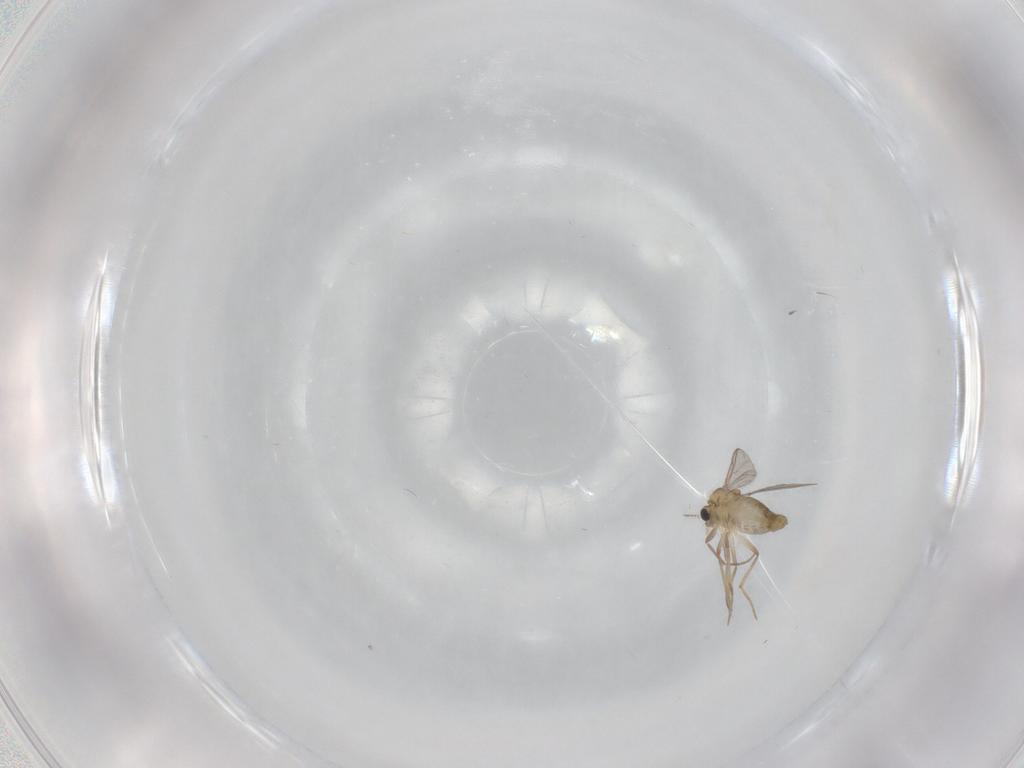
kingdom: Animalia
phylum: Arthropoda
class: Insecta
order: Diptera
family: Chironomidae
